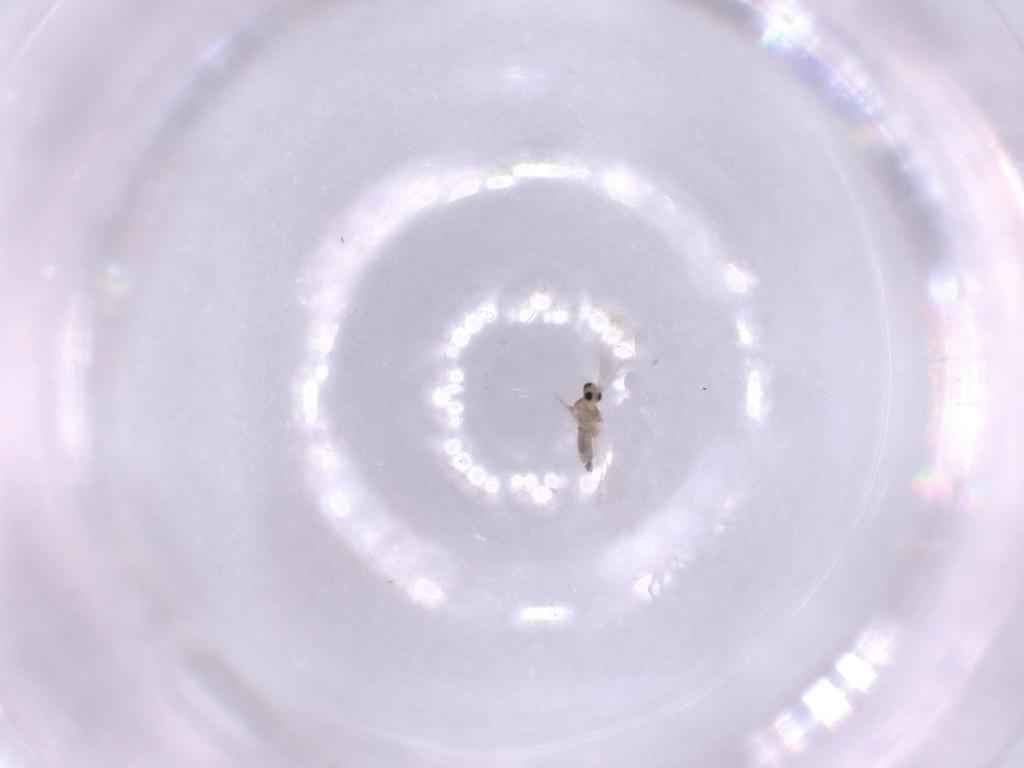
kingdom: Animalia
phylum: Arthropoda
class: Insecta
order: Diptera
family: Cecidomyiidae
